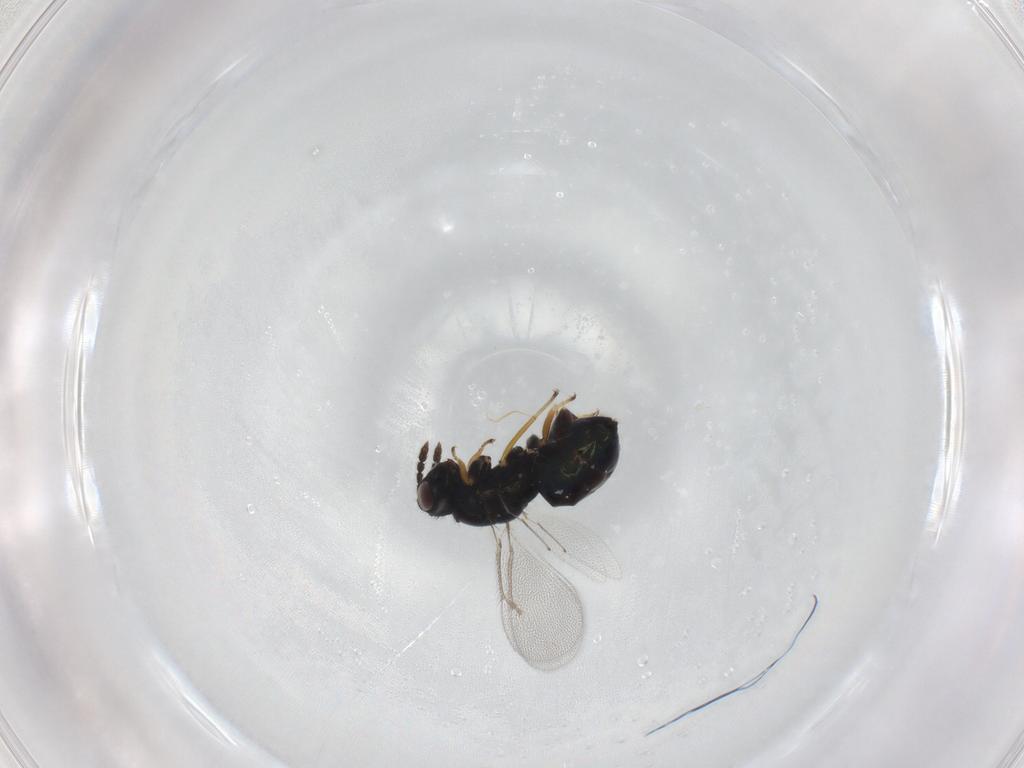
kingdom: Animalia
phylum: Arthropoda
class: Insecta
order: Hymenoptera
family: Eulophidae
